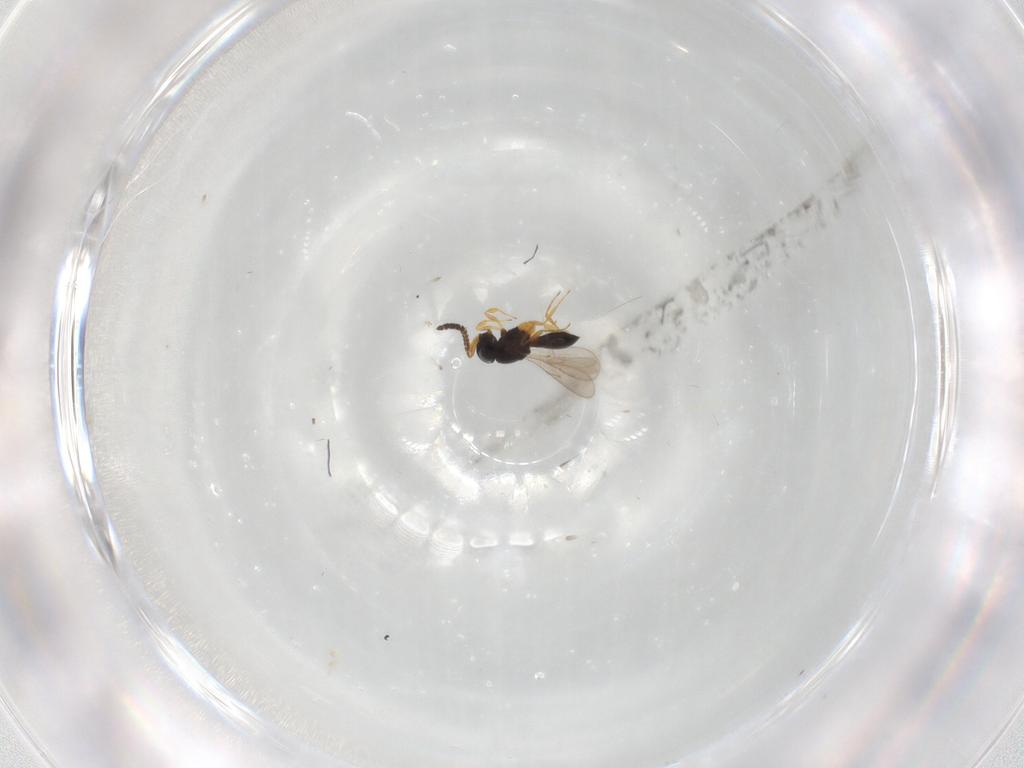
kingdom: Animalia
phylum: Arthropoda
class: Insecta
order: Hymenoptera
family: Scelionidae
